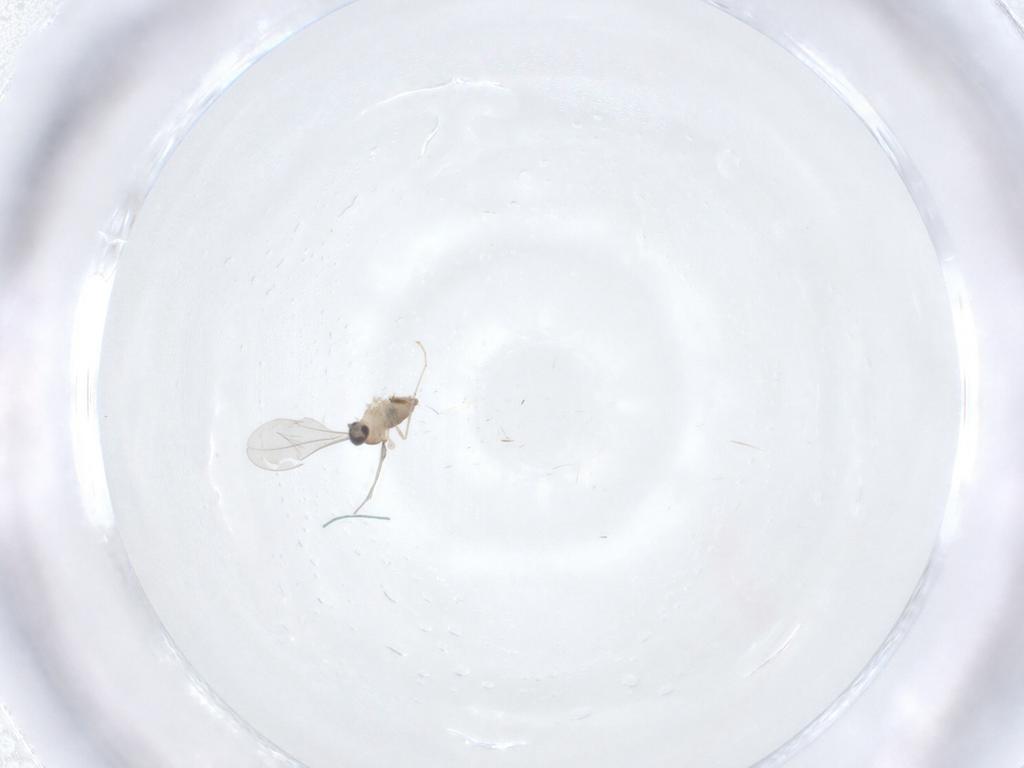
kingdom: Animalia
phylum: Arthropoda
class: Insecta
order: Diptera
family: Cecidomyiidae
